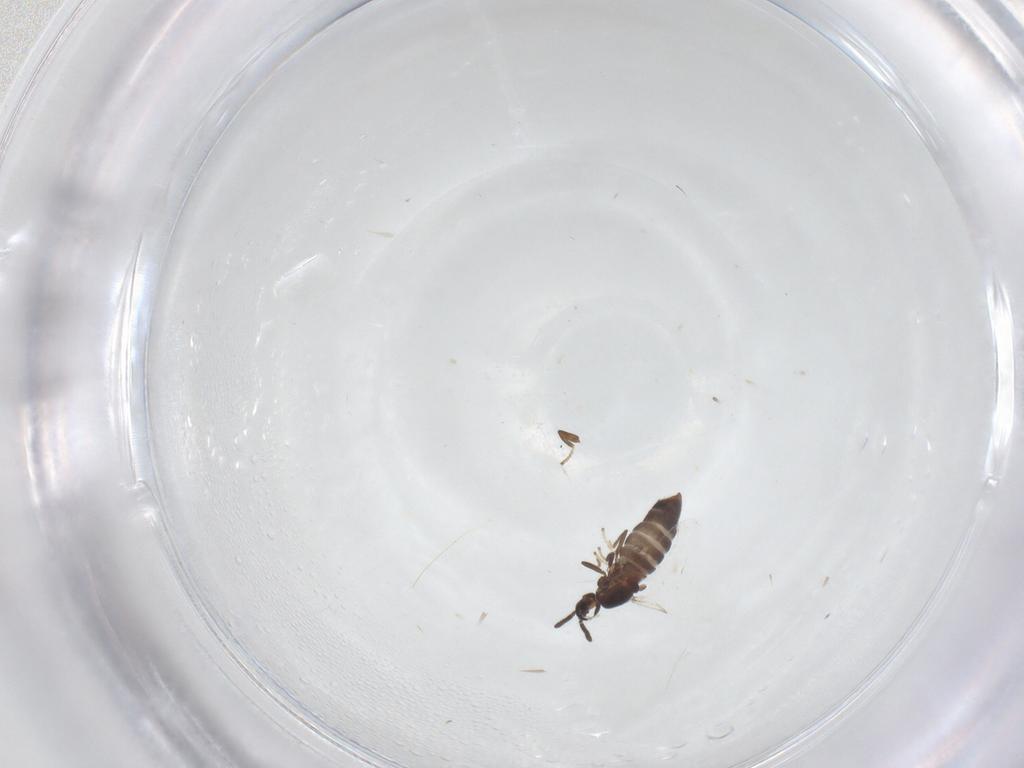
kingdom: Animalia
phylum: Arthropoda
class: Insecta
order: Diptera
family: Scatopsidae
